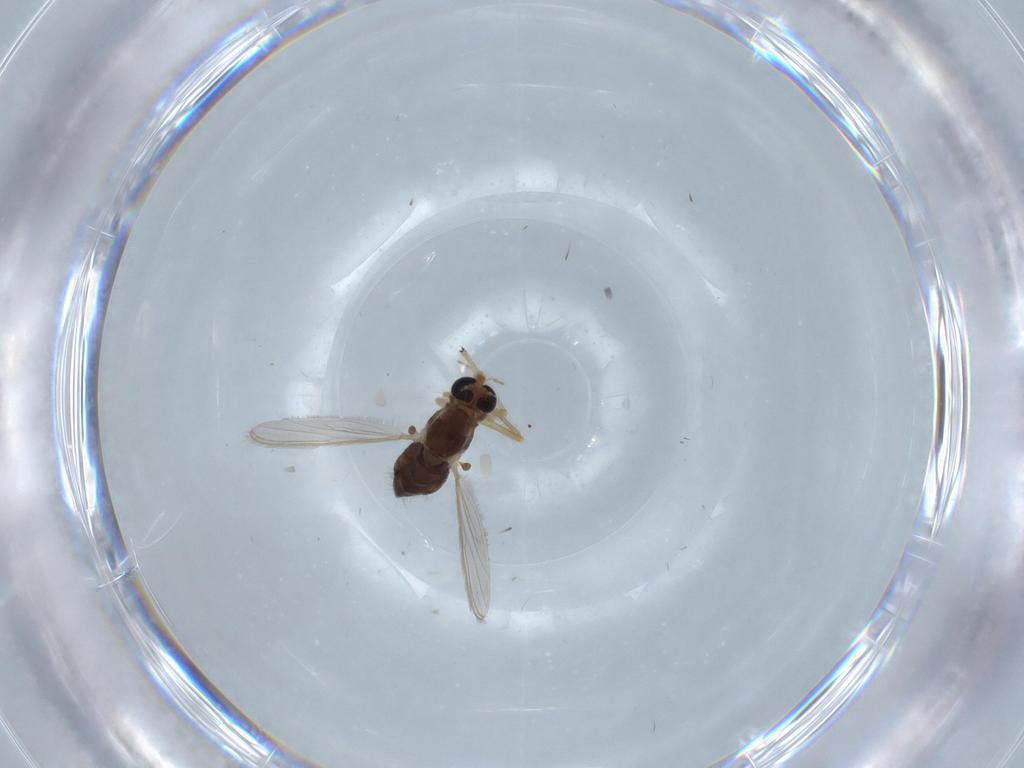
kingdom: Animalia
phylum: Arthropoda
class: Insecta
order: Diptera
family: Chironomidae
